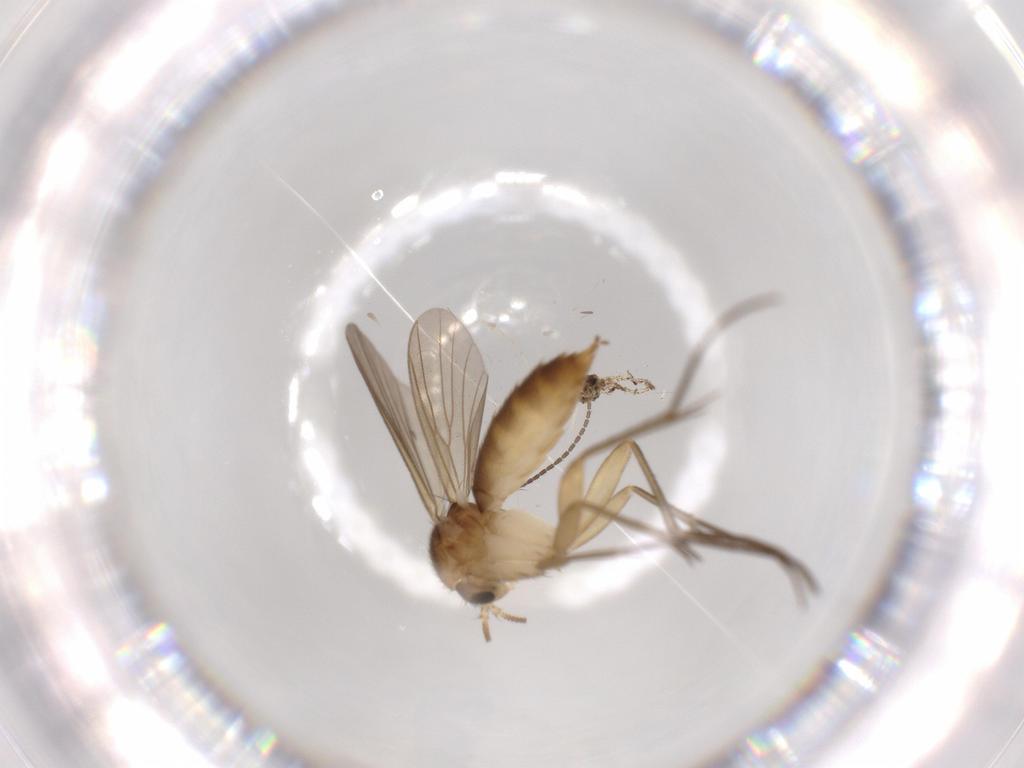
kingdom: Animalia
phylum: Arthropoda
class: Insecta
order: Diptera
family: Mycetophilidae
